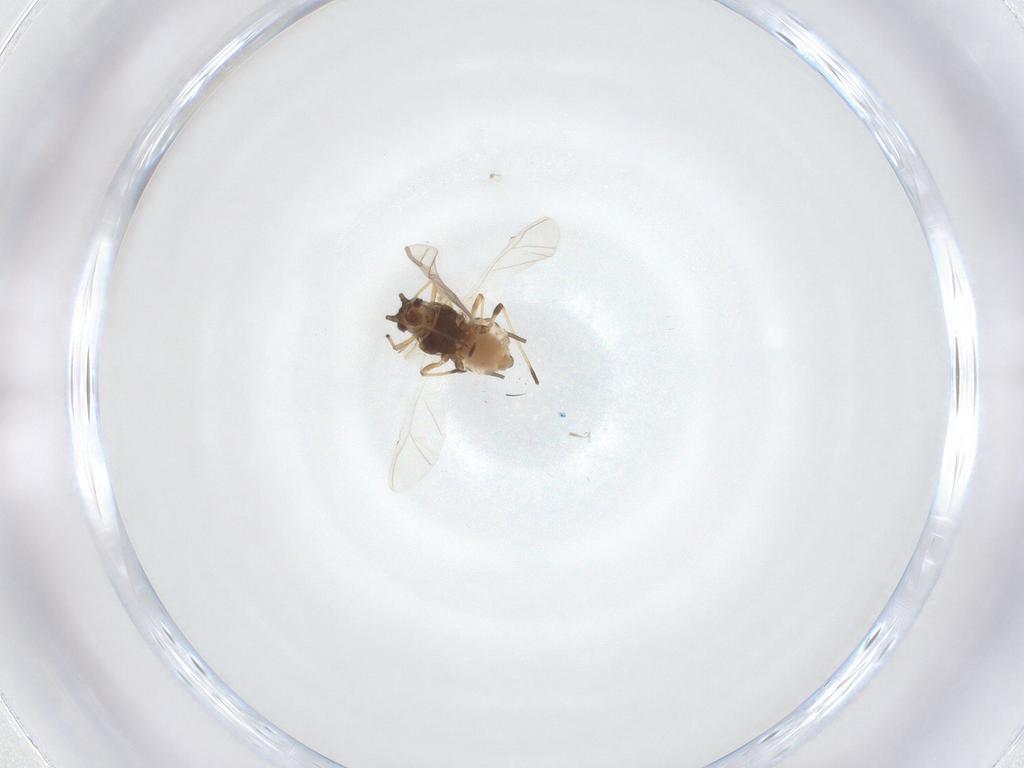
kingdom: Animalia
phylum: Arthropoda
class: Insecta
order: Hemiptera
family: Aphididae
